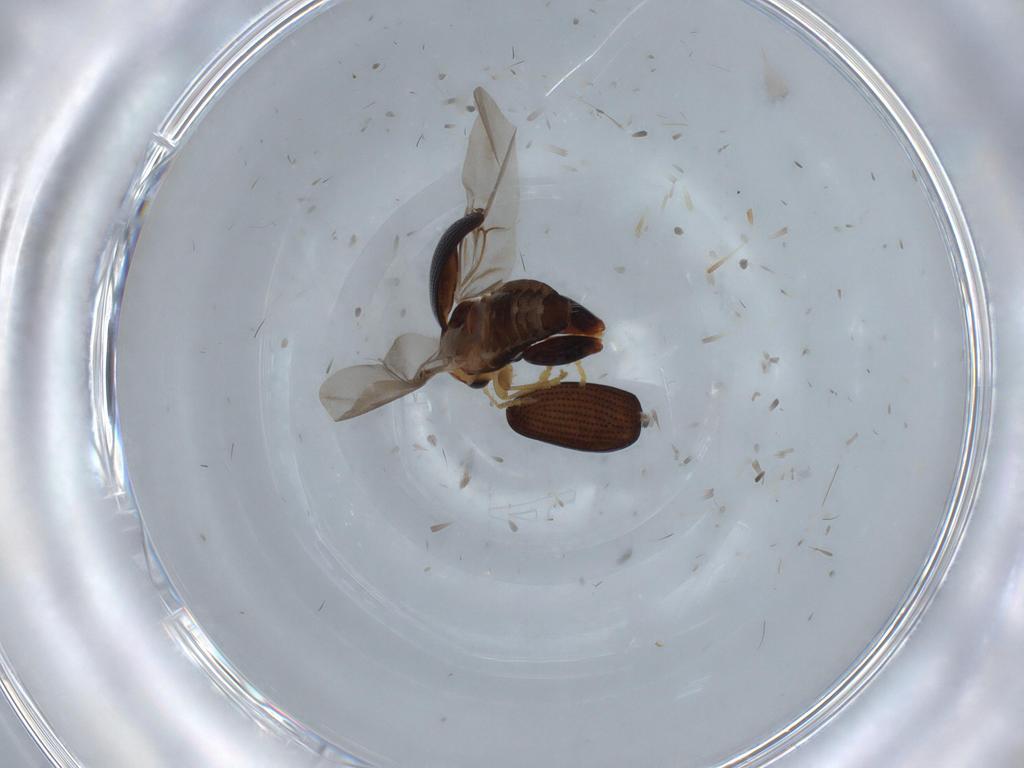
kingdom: Animalia
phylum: Arthropoda
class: Insecta
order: Coleoptera
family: Chrysomelidae
